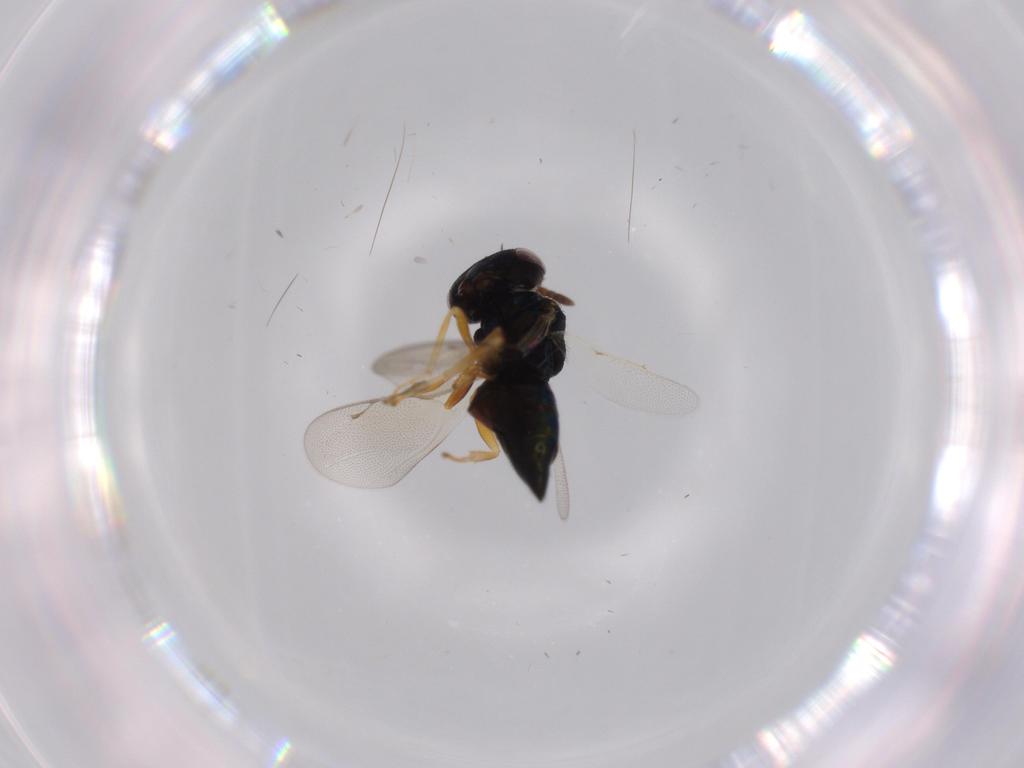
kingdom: Animalia
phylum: Arthropoda
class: Insecta
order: Hymenoptera
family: Pteromalidae
